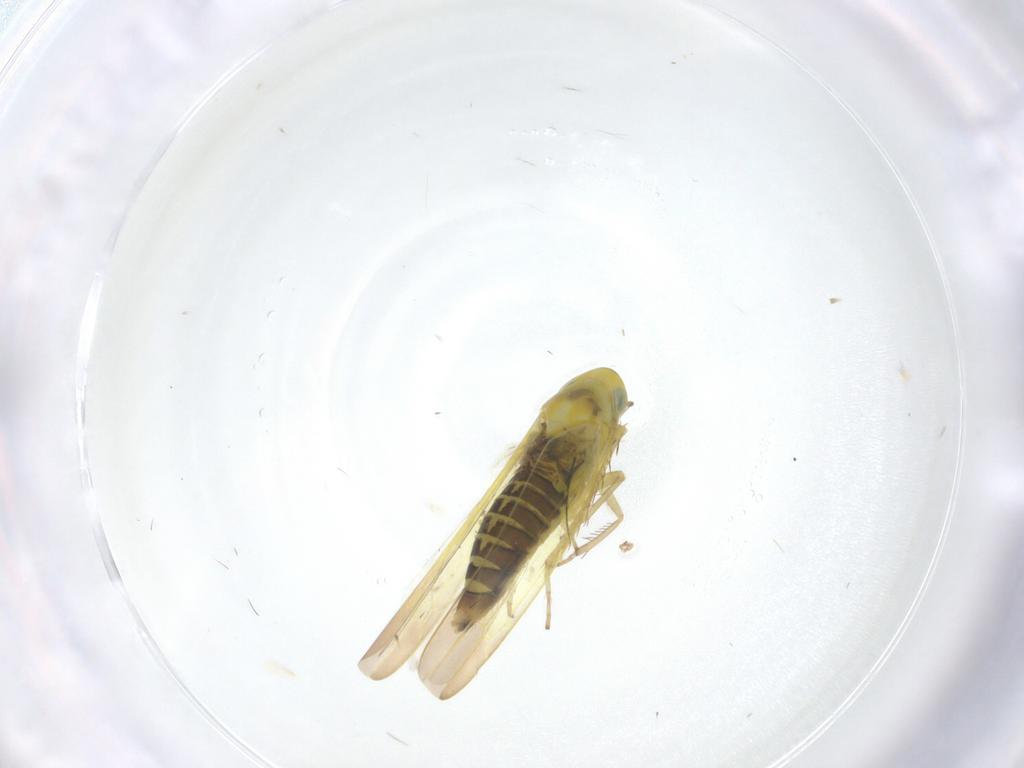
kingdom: Animalia
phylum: Arthropoda
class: Insecta
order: Hemiptera
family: Cicadellidae
